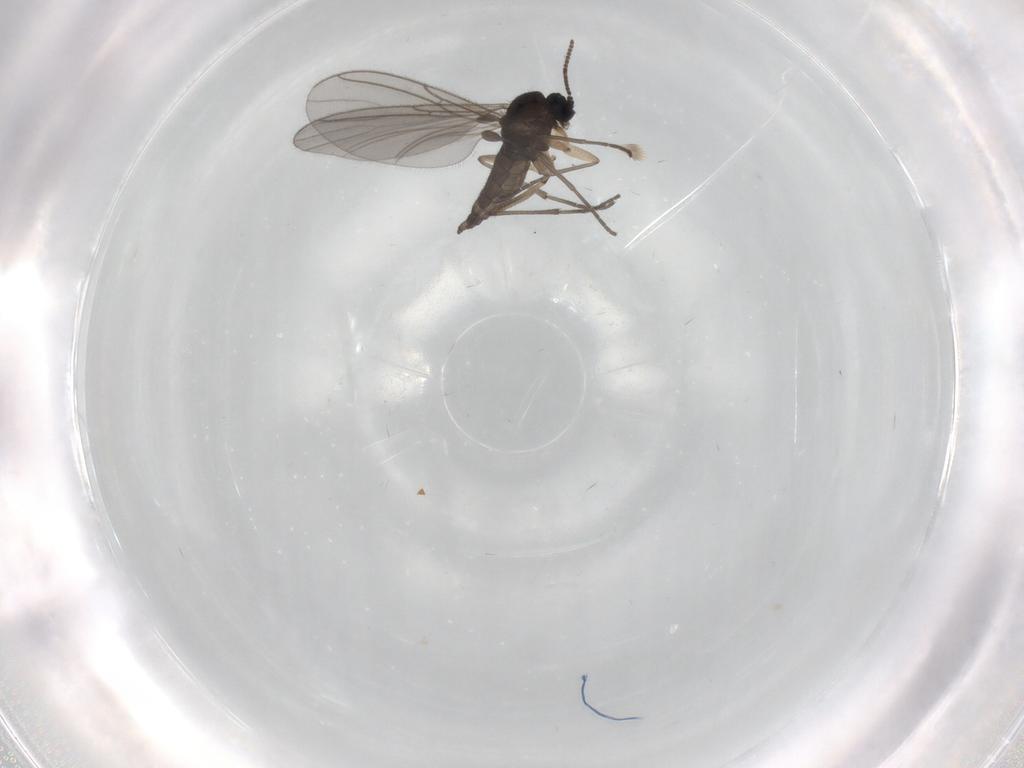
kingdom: Animalia
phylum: Arthropoda
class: Insecta
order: Diptera
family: Sciaridae
